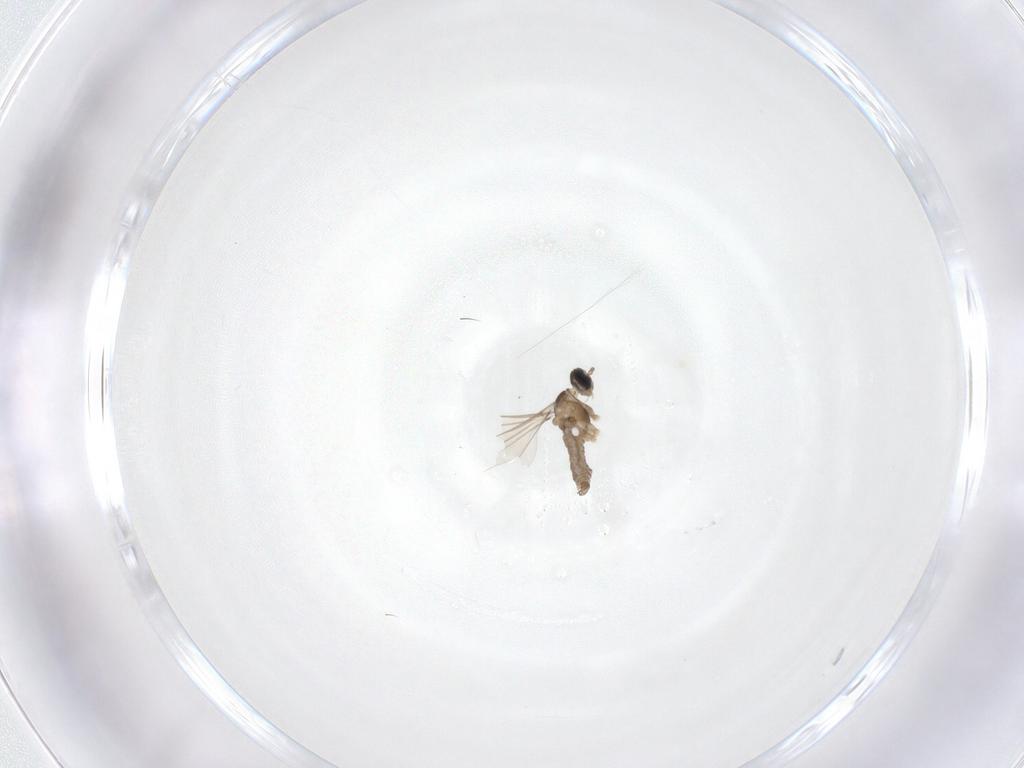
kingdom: Animalia
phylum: Arthropoda
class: Insecta
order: Diptera
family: Cecidomyiidae
